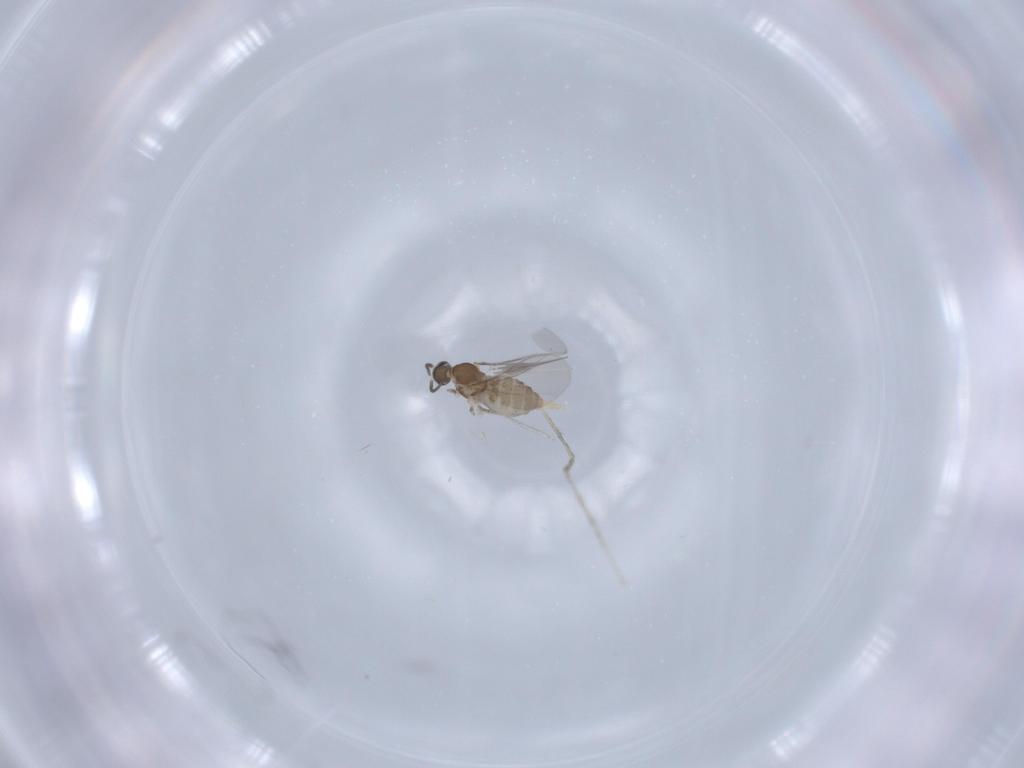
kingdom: Animalia
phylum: Arthropoda
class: Insecta
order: Diptera
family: Cecidomyiidae
